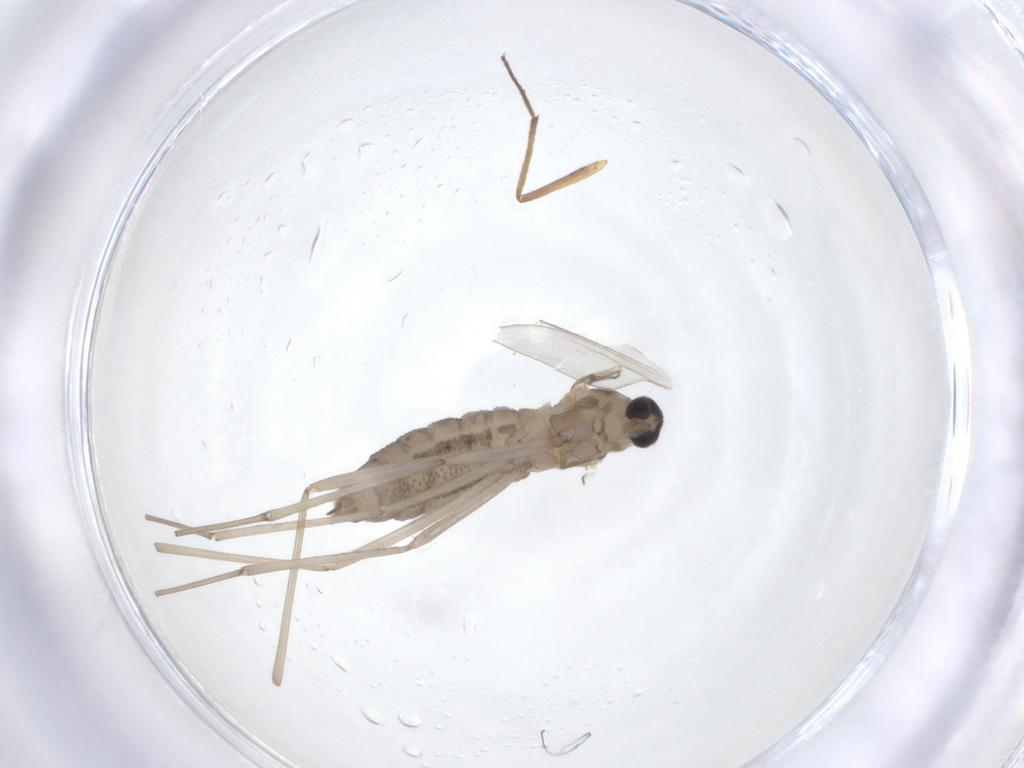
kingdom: Animalia
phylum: Arthropoda
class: Insecta
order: Diptera
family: Cecidomyiidae
